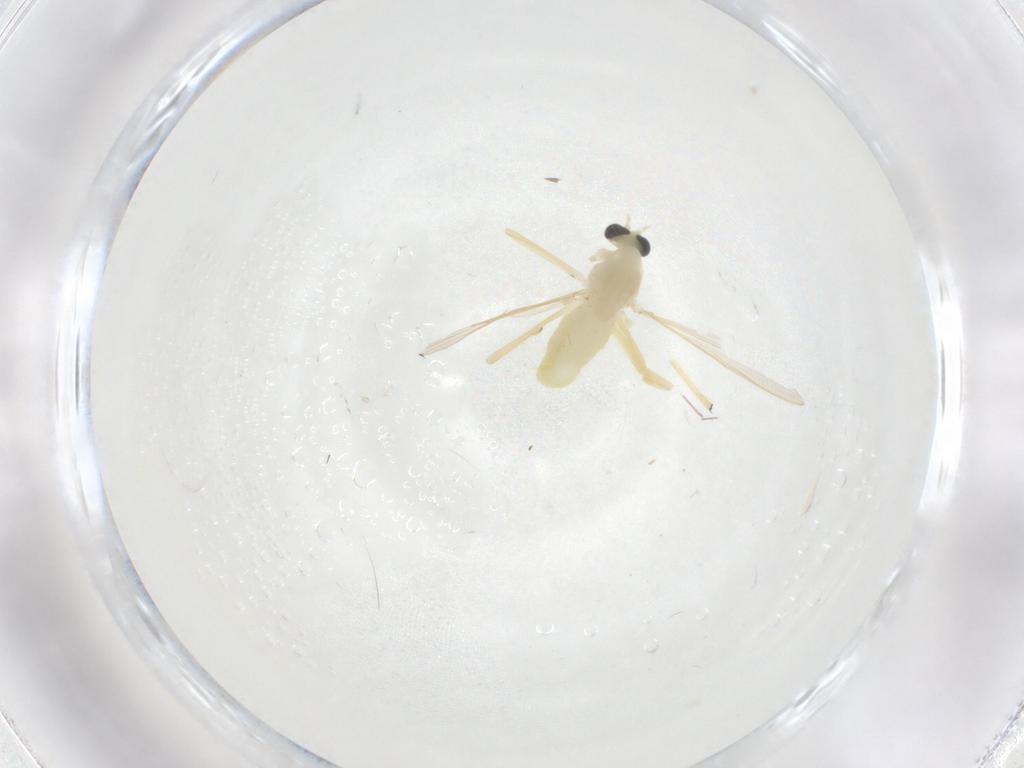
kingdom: Animalia
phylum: Arthropoda
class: Insecta
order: Diptera
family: Chironomidae
